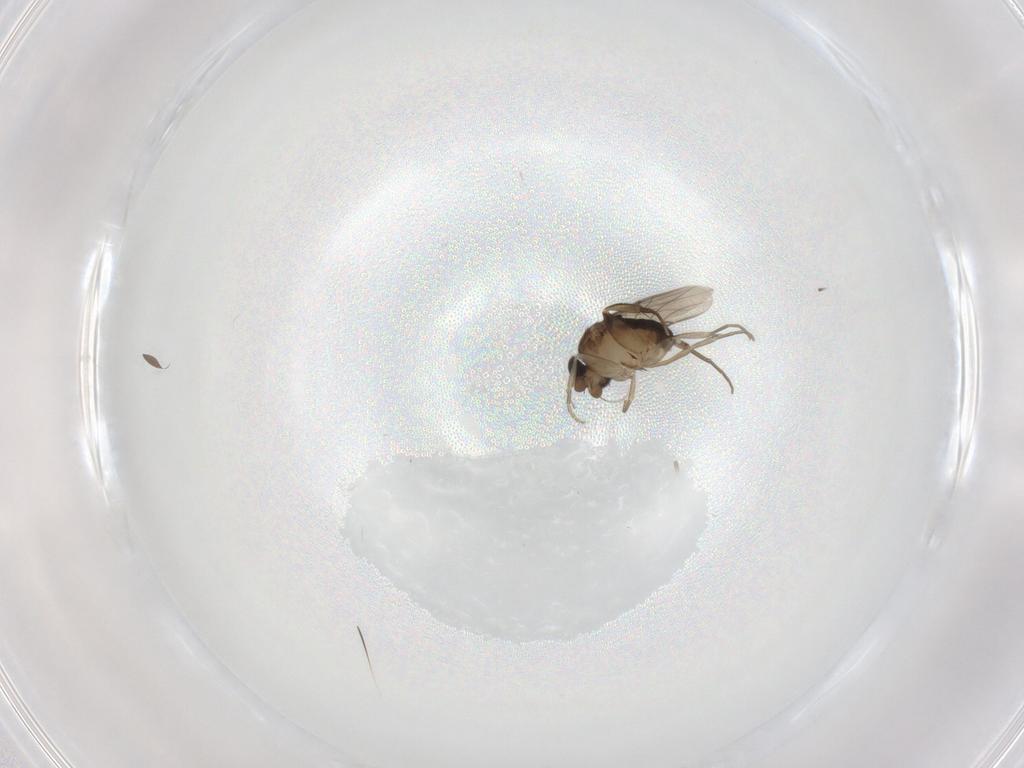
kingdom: Animalia
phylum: Arthropoda
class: Insecta
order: Diptera
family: Phoridae
